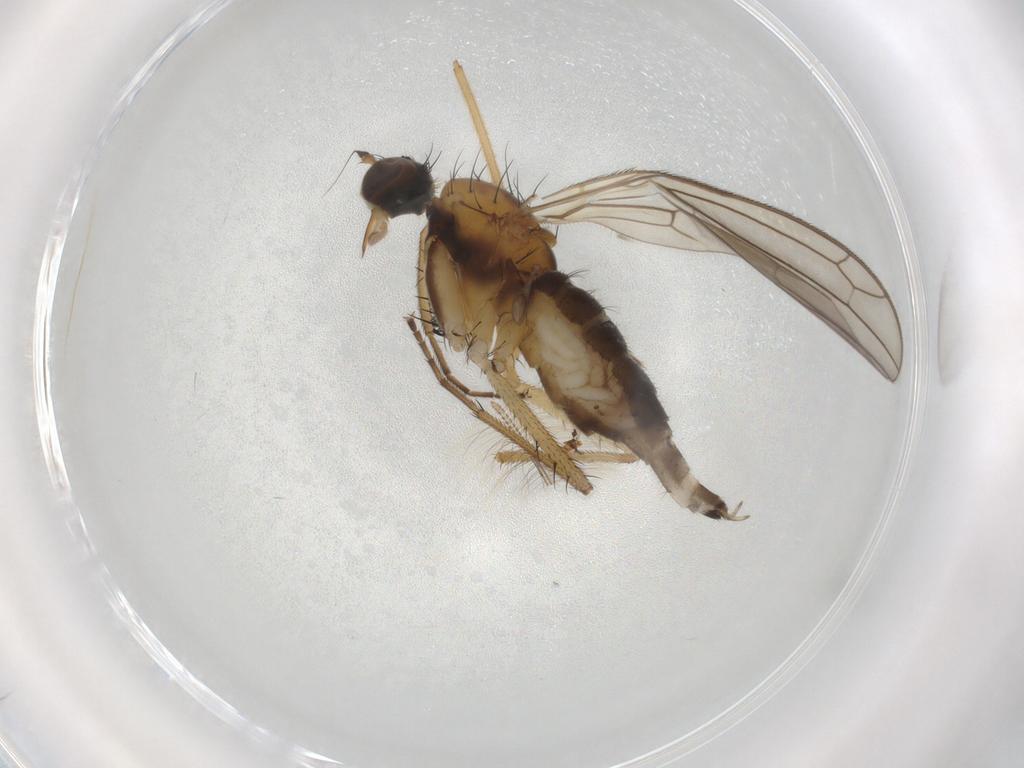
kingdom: Animalia
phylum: Arthropoda
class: Insecta
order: Diptera
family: Chironomidae
